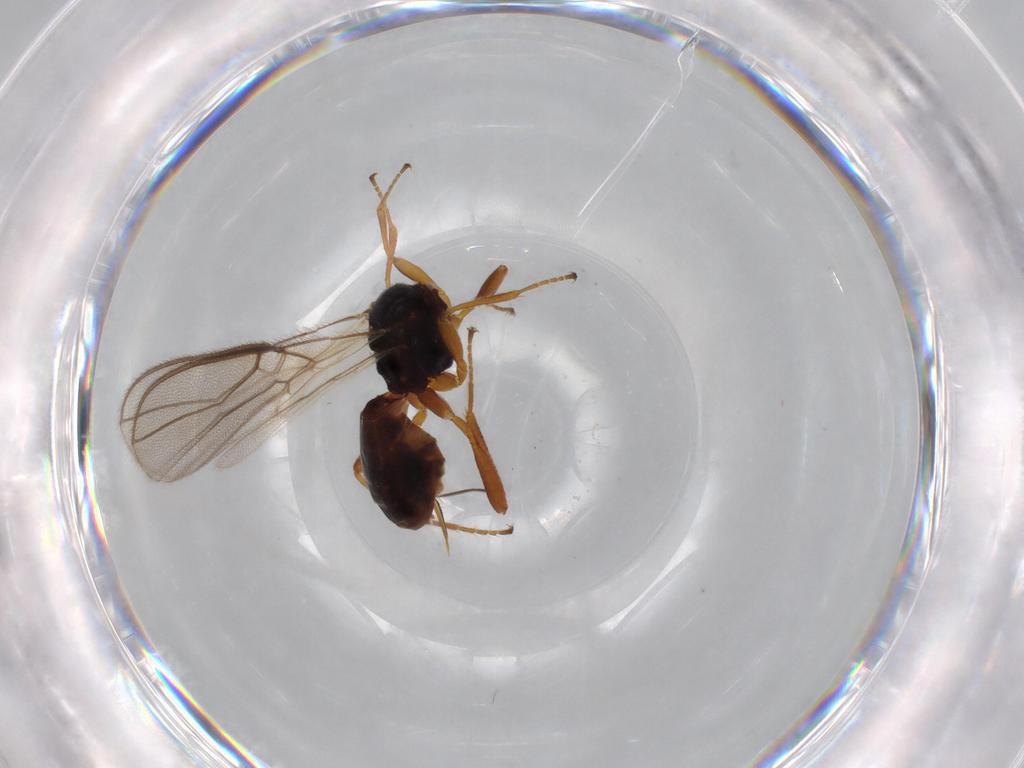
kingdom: Animalia
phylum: Arthropoda
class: Insecta
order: Hymenoptera
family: Braconidae
